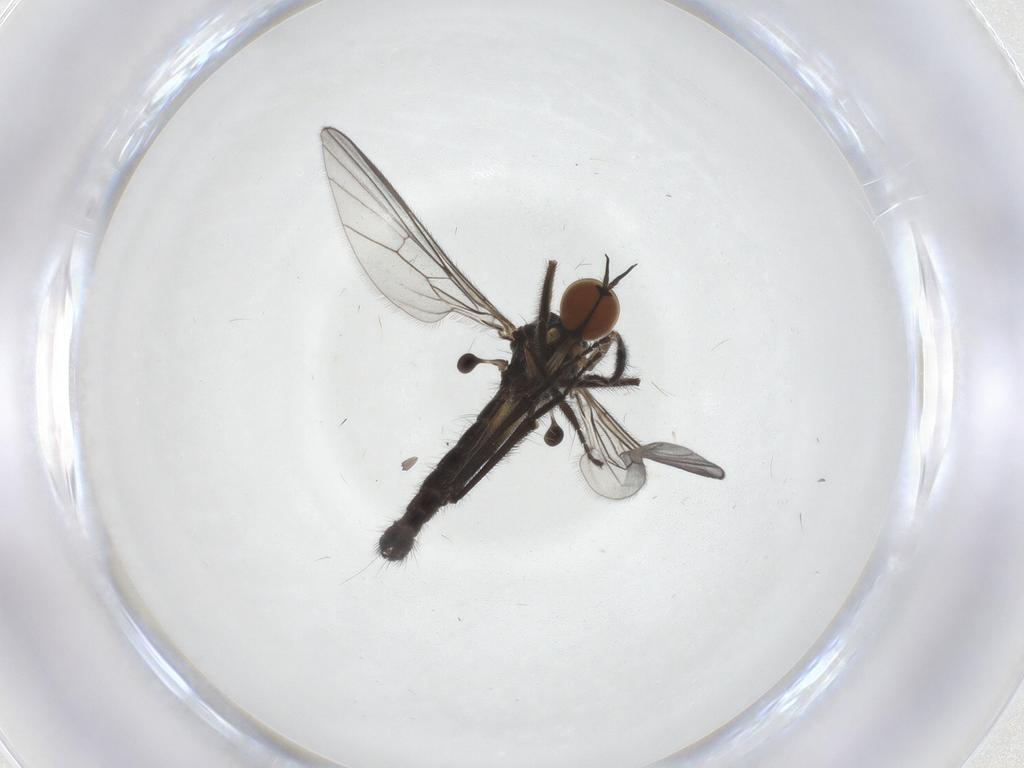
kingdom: Animalia
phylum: Arthropoda
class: Insecta
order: Diptera
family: Empididae
